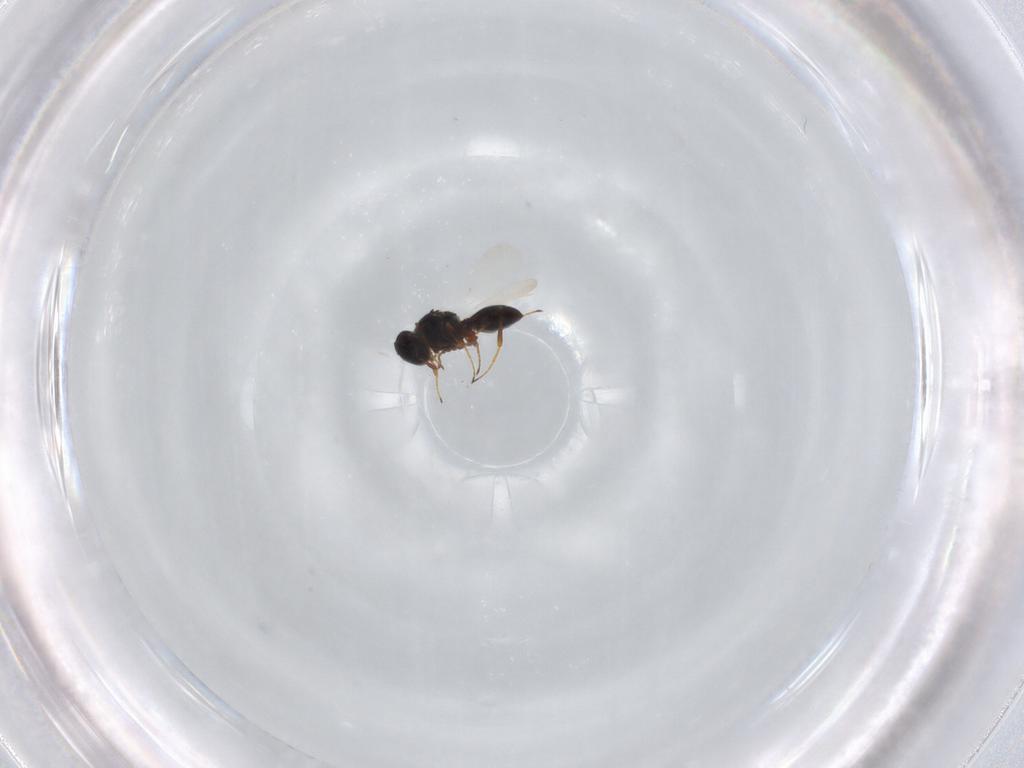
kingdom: Animalia
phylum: Arthropoda
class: Insecta
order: Hymenoptera
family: Platygastridae
